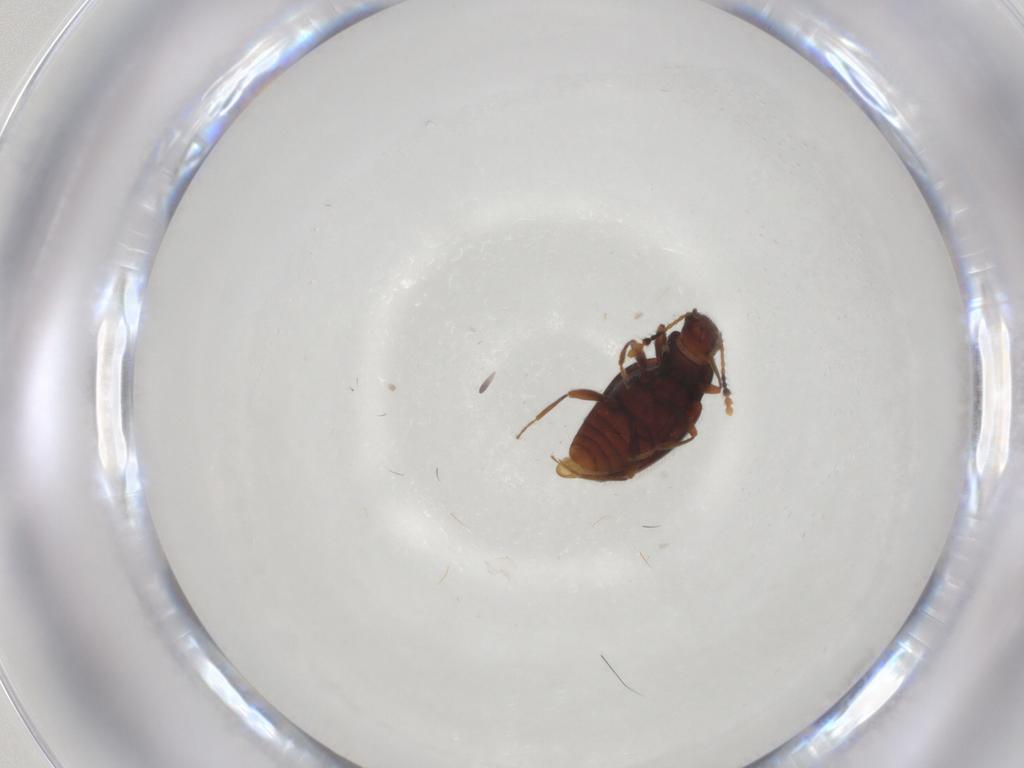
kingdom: Animalia
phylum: Arthropoda
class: Insecta
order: Coleoptera
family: Erotylidae
